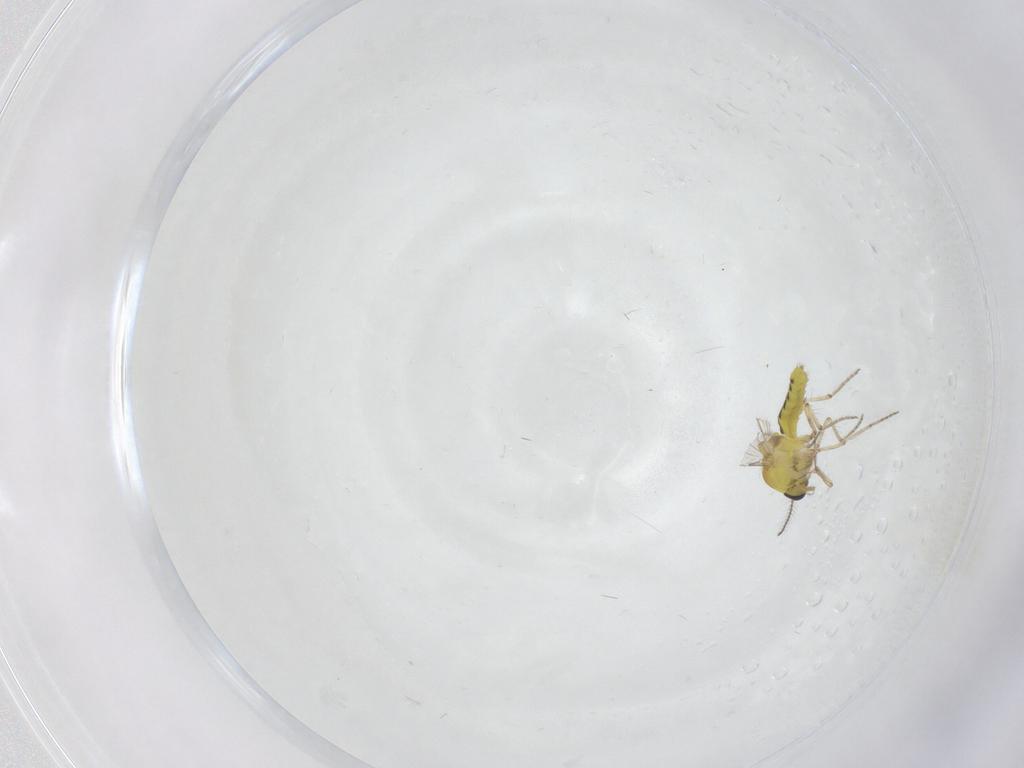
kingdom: Animalia
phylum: Arthropoda
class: Insecta
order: Diptera
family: Ceratopogonidae
